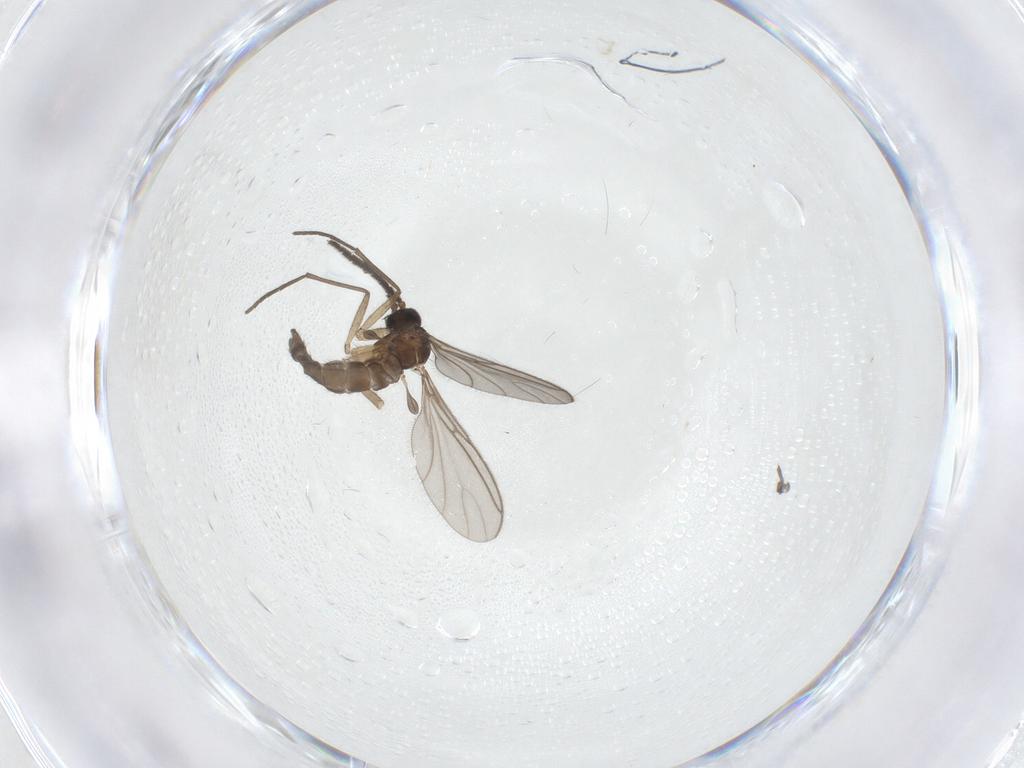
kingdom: Animalia
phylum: Arthropoda
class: Insecta
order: Diptera
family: Sciaridae
